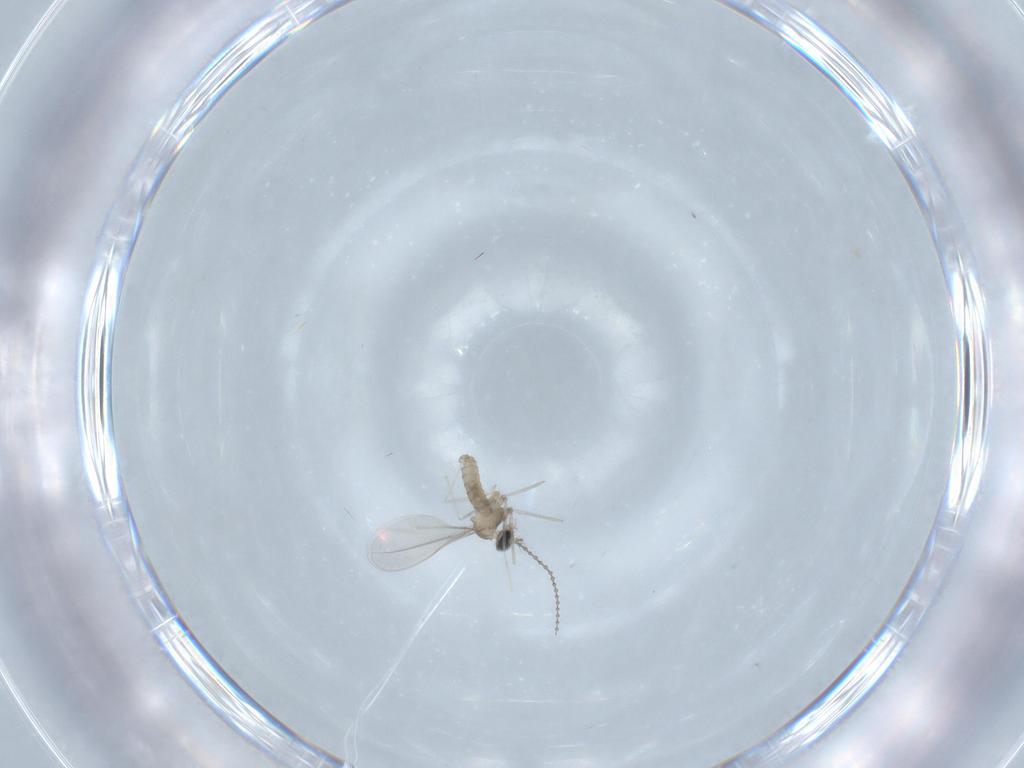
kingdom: Animalia
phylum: Arthropoda
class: Insecta
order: Diptera
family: Cecidomyiidae
